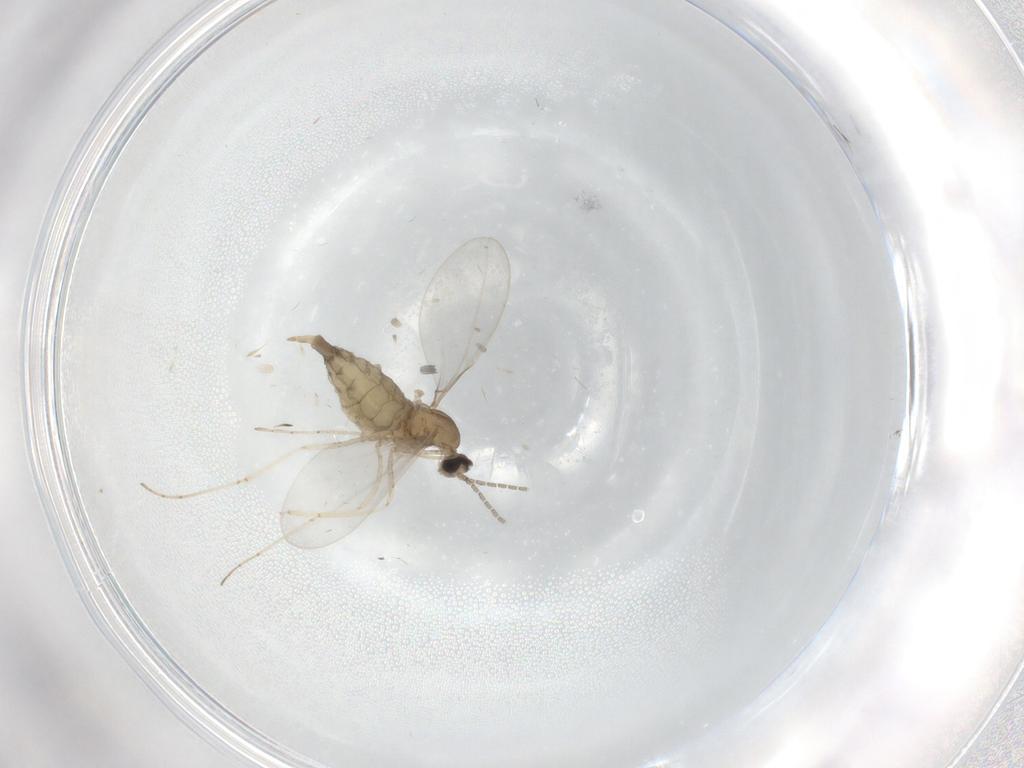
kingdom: Animalia
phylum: Arthropoda
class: Insecta
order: Diptera
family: Cecidomyiidae
